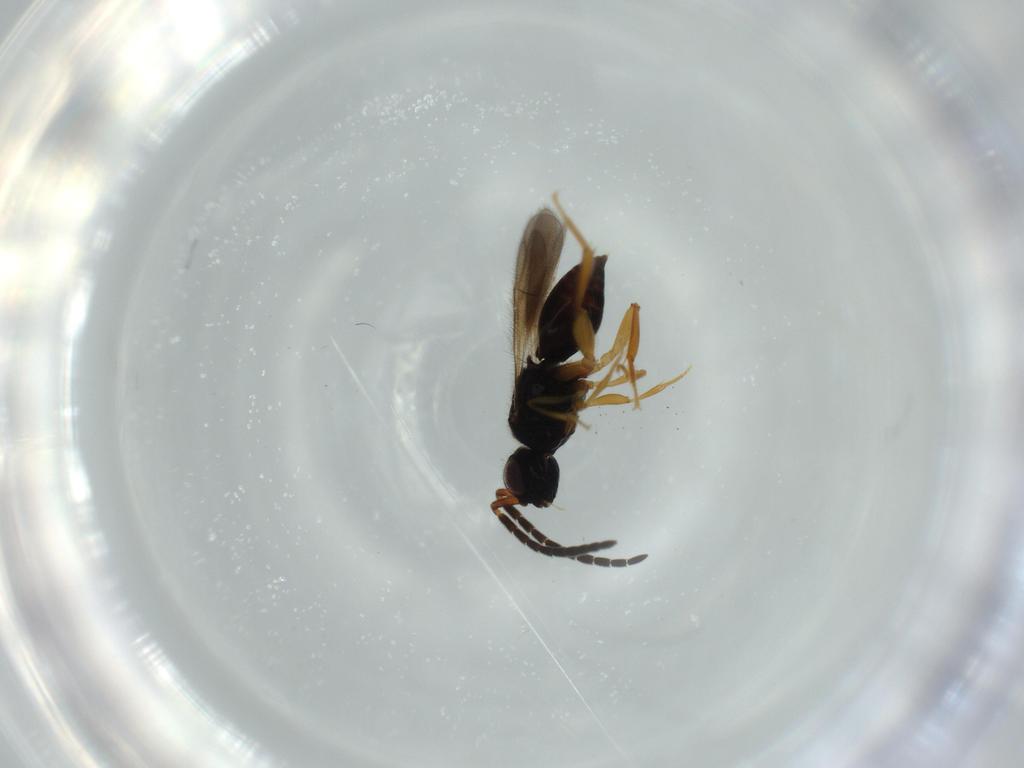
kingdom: Animalia
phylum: Arthropoda
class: Insecta
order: Hymenoptera
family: Ceraphronidae
